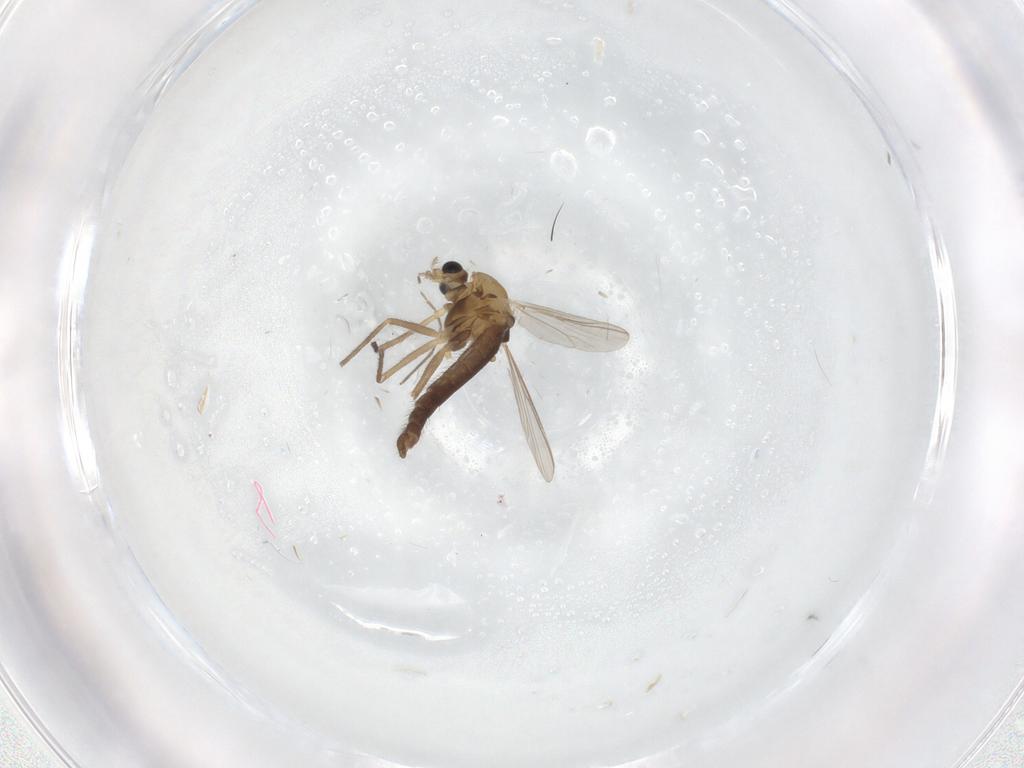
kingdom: Animalia
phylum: Arthropoda
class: Insecta
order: Diptera
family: Chironomidae
